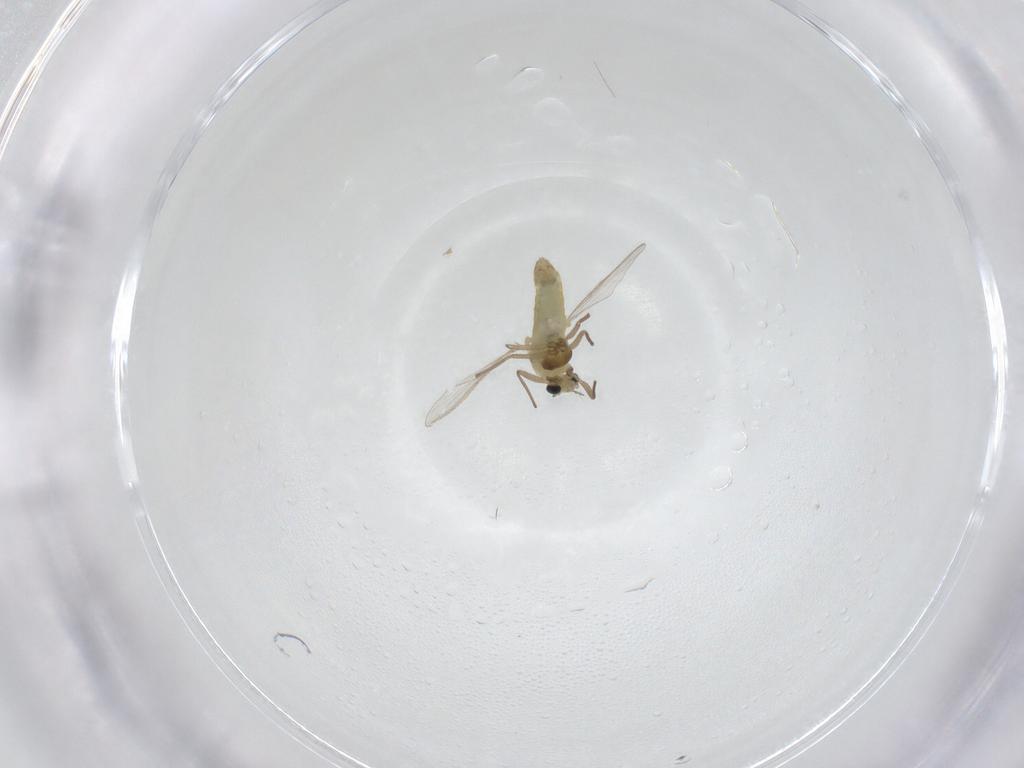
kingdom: Animalia
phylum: Arthropoda
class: Insecta
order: Diptera
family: Chironomidae
